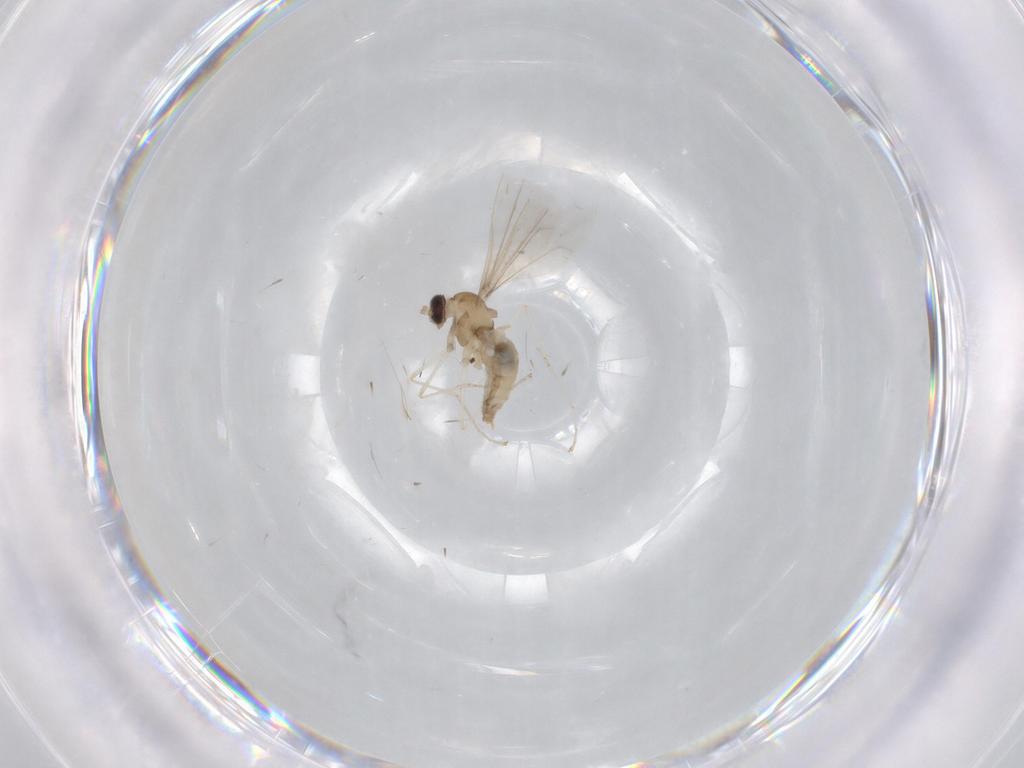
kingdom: Animalia
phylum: Arthropoda
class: Insecta
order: Diptera
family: Cecidomyiidae
